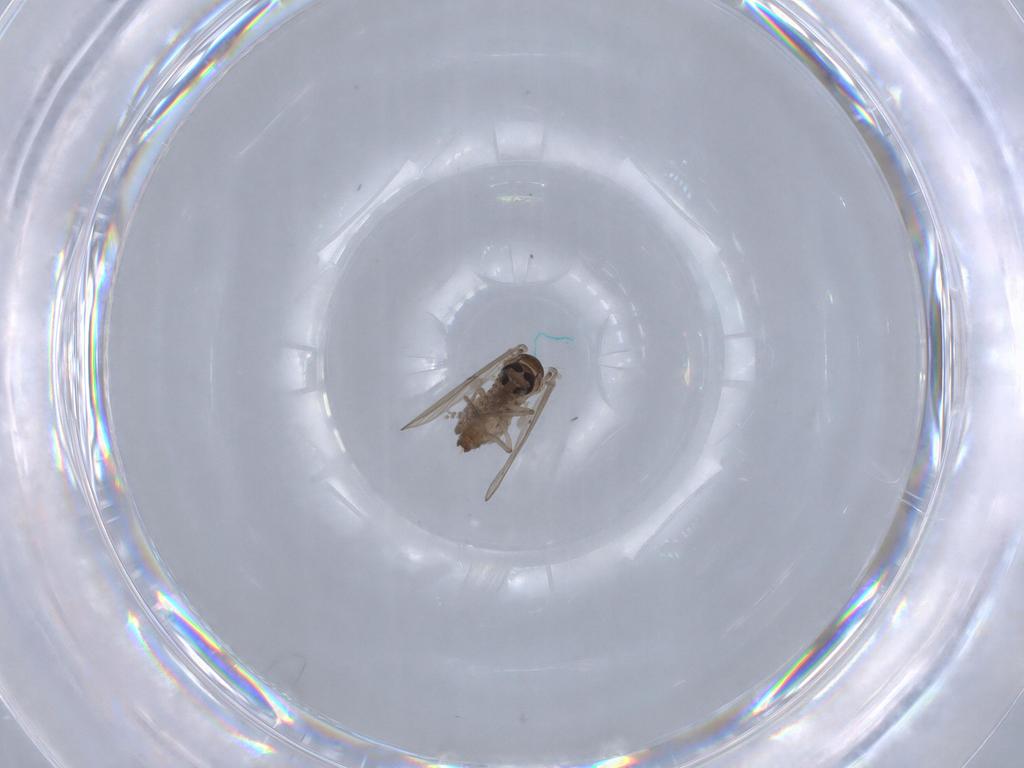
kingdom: Animalia
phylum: Arthropoda
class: Insecta
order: Diptera
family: Psychodidae
